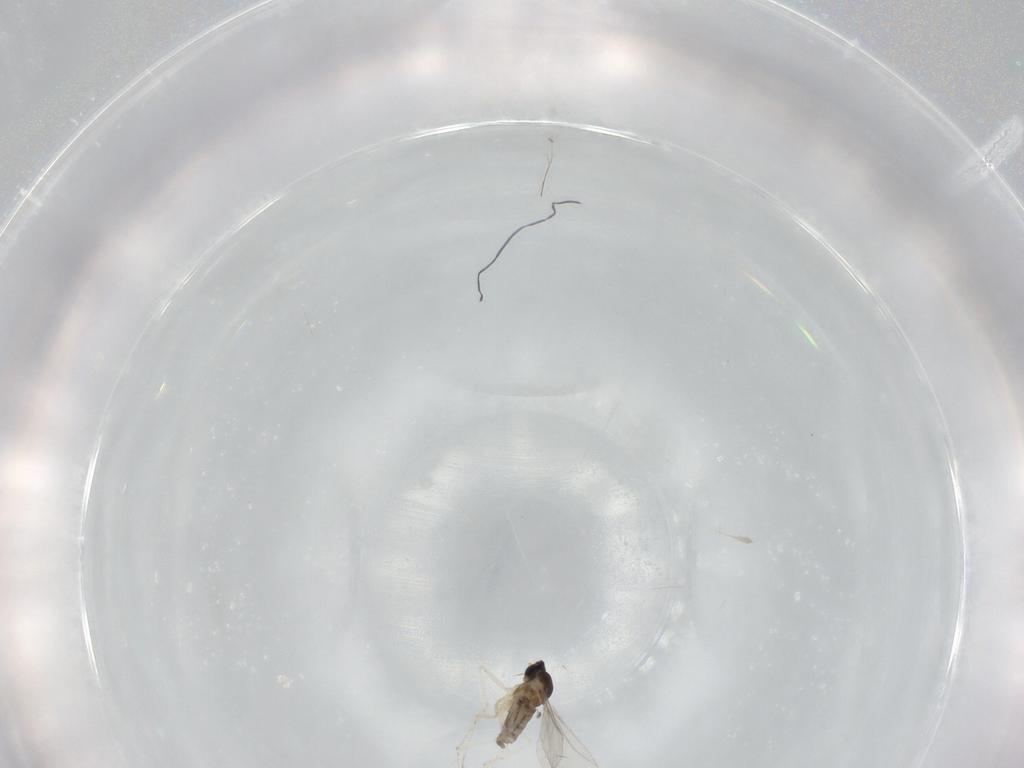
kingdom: Animalia
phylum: Arthropoda
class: Insecta
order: Diptera
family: Cecidomyiidae
